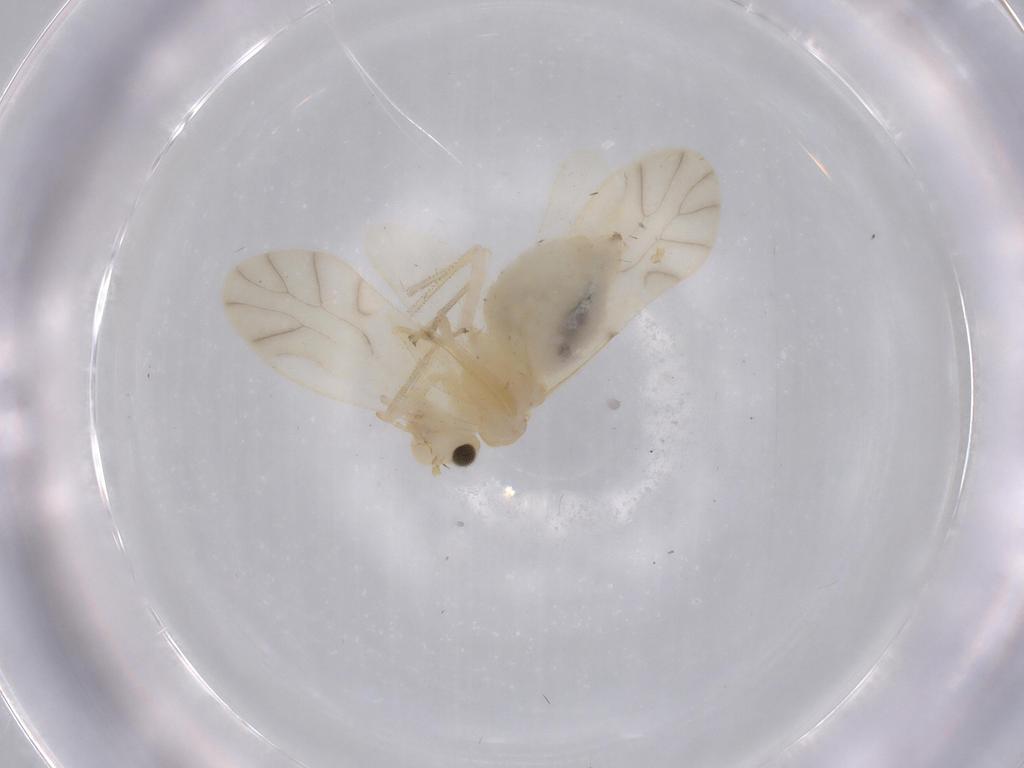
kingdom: Animalia
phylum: Arthropoda
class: Insecta
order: Psocodea
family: Caeciliusidae
